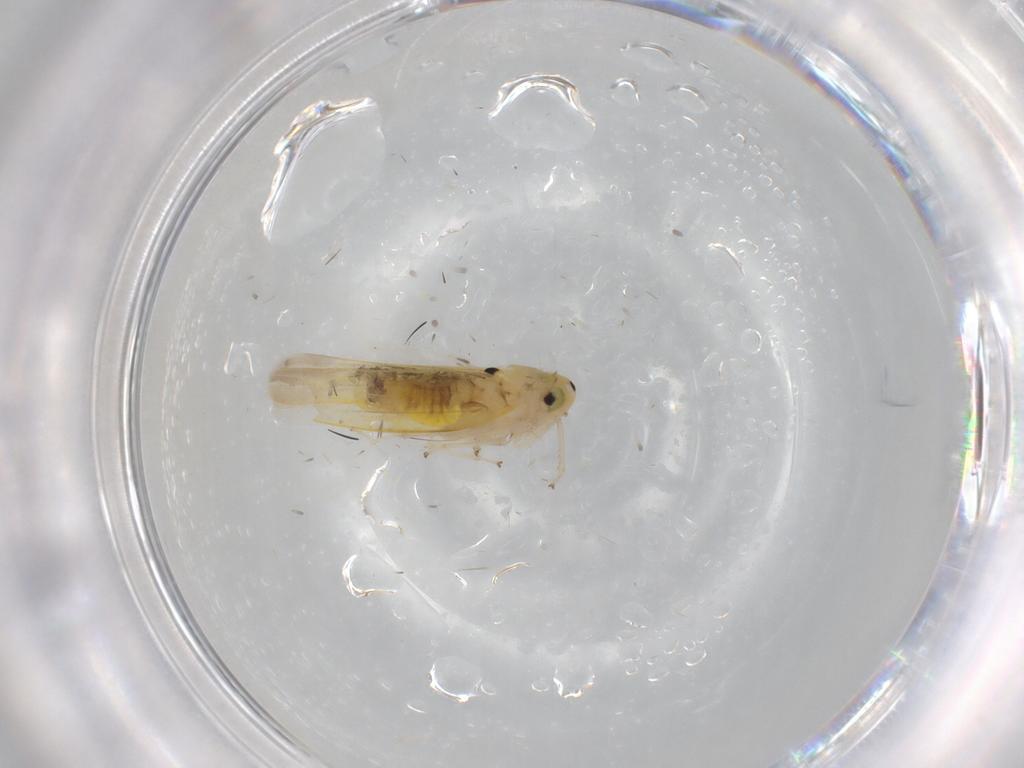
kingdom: Animalia
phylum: Arthropoda
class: Insecta
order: Hemiptera
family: Cicadellidae
